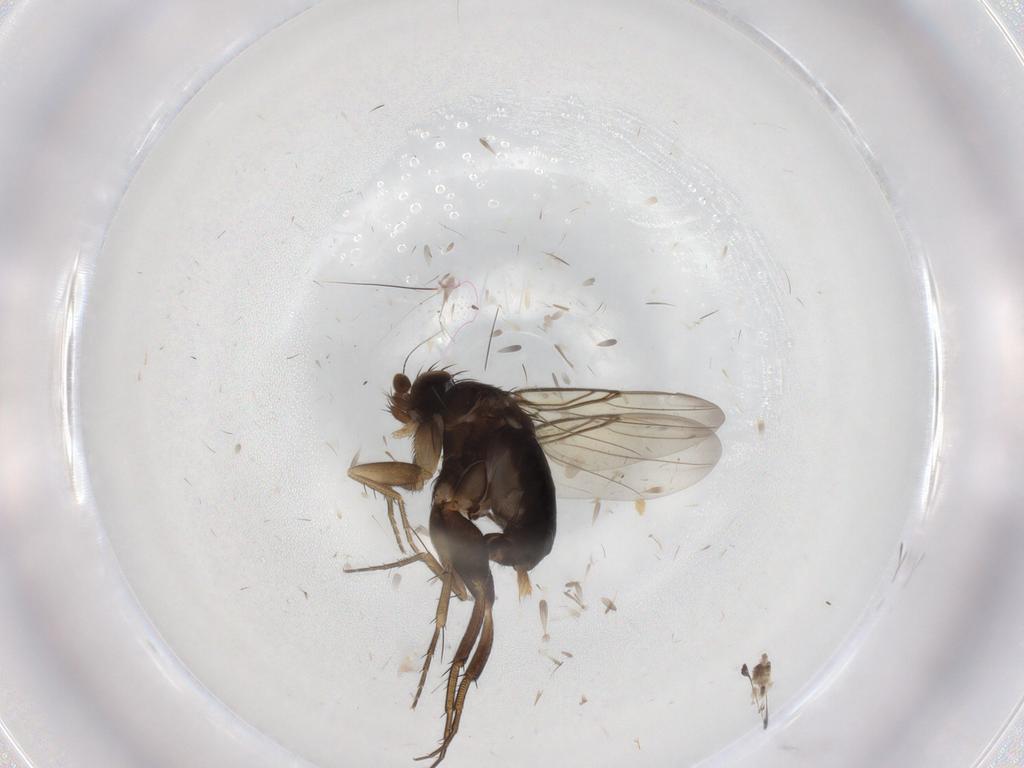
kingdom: Animalia
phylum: Arthropoda
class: Insecta
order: Diptera
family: Phoridae
